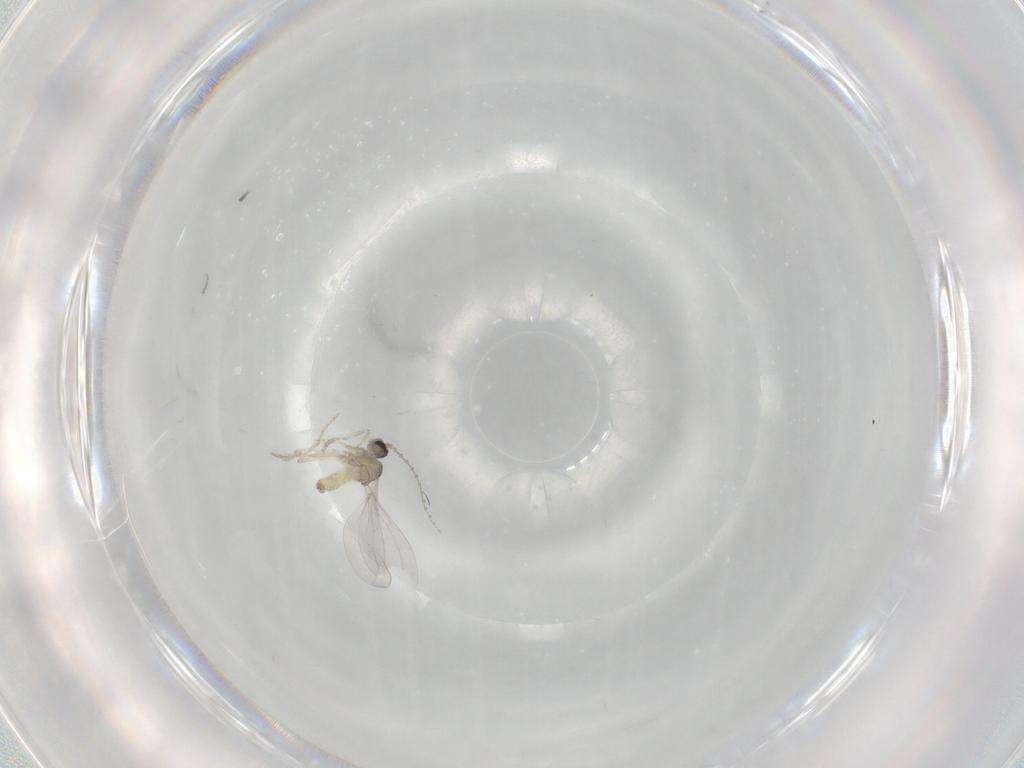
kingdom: Animalia
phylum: Arthropoda
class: Insecta
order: Diptera
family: Cecidomyiidae
